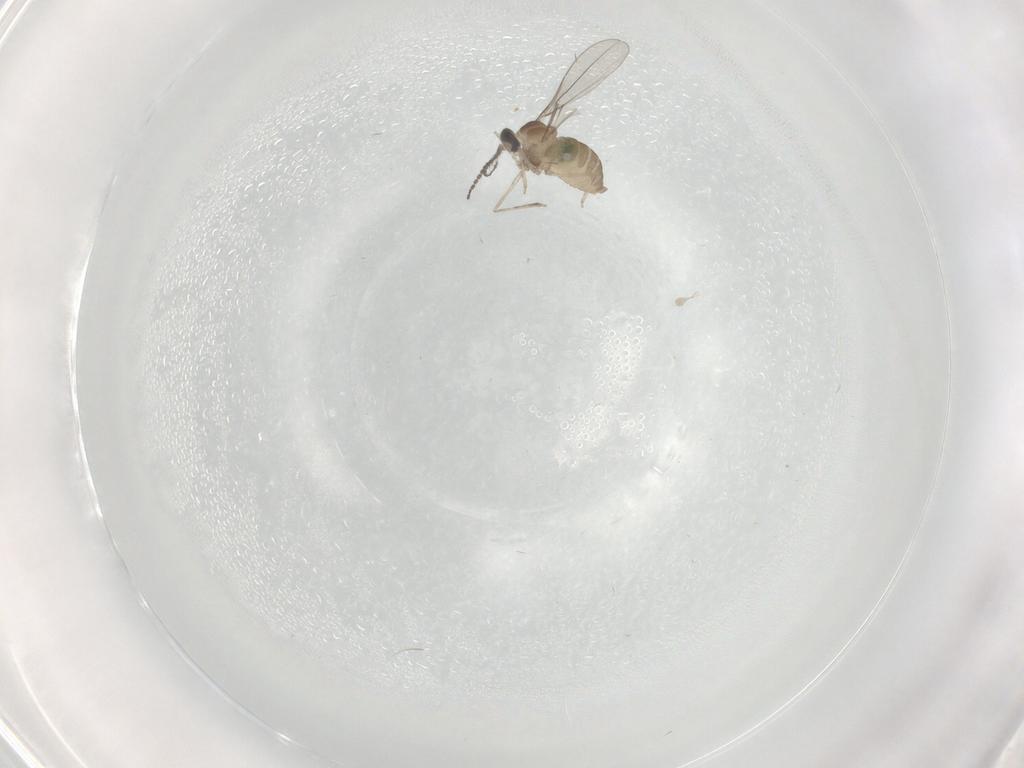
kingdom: Animalia
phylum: Arthropoda
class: Insecta
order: Diptera
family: Cecidomyiidae
